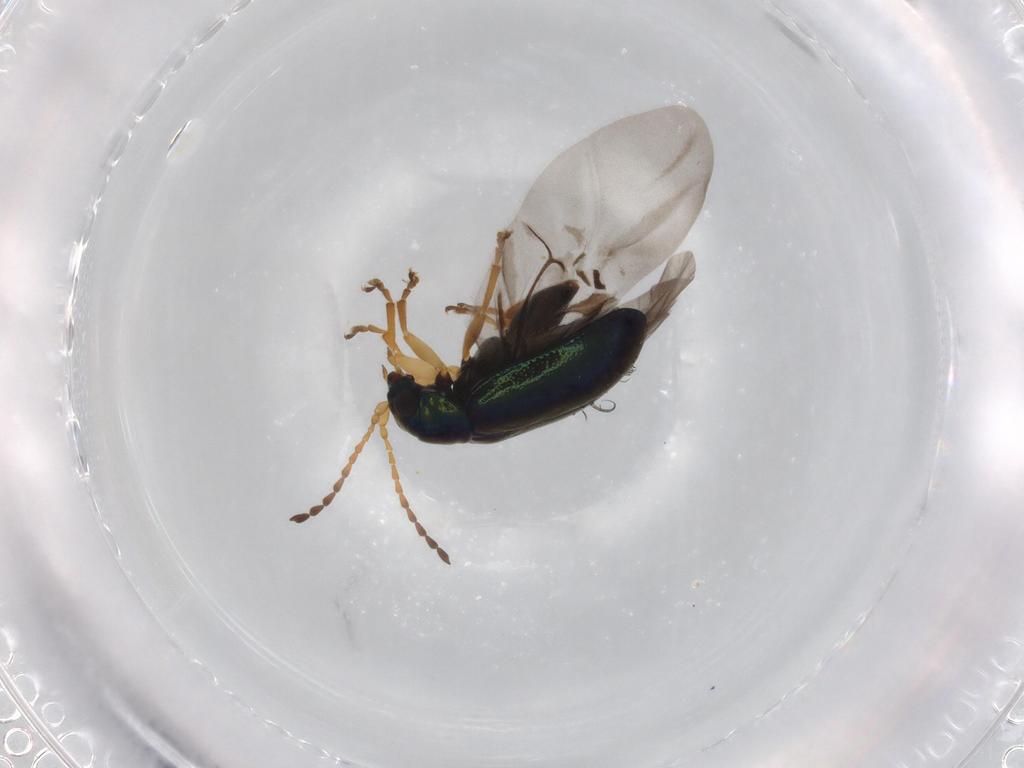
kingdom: Animalia
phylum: Arthropoda
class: Insecta
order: Coleoptera
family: Chrysomelidae
